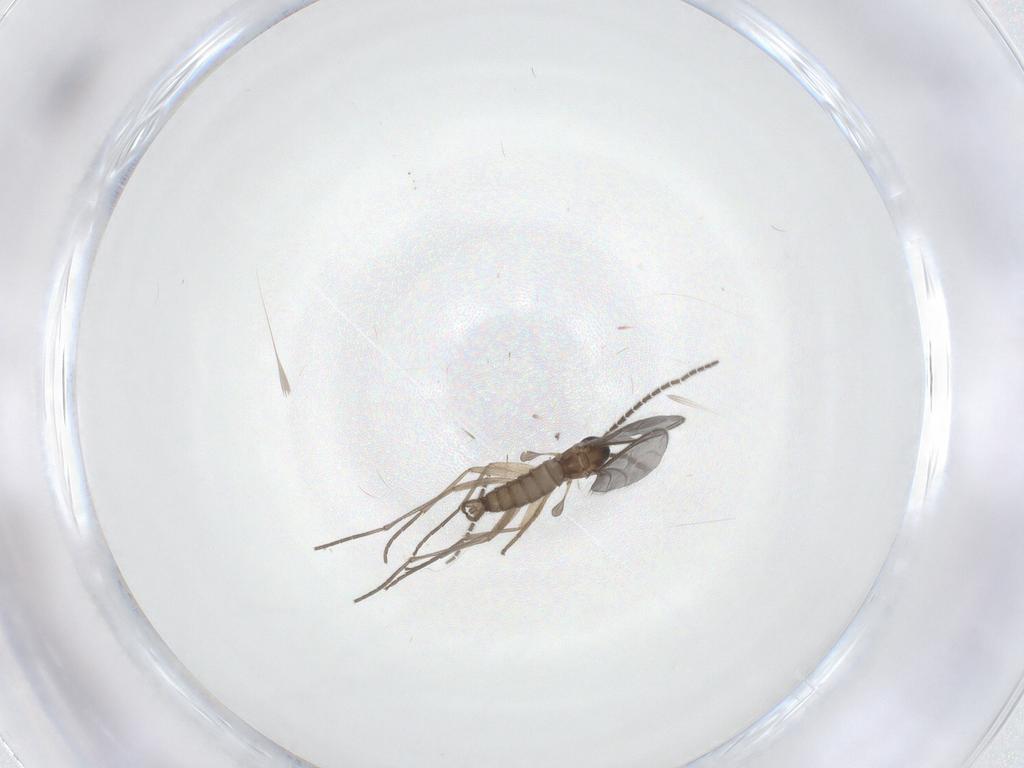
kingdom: Animalia
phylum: Arthropoda
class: Insecta
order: Diptera
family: Sciaridae
